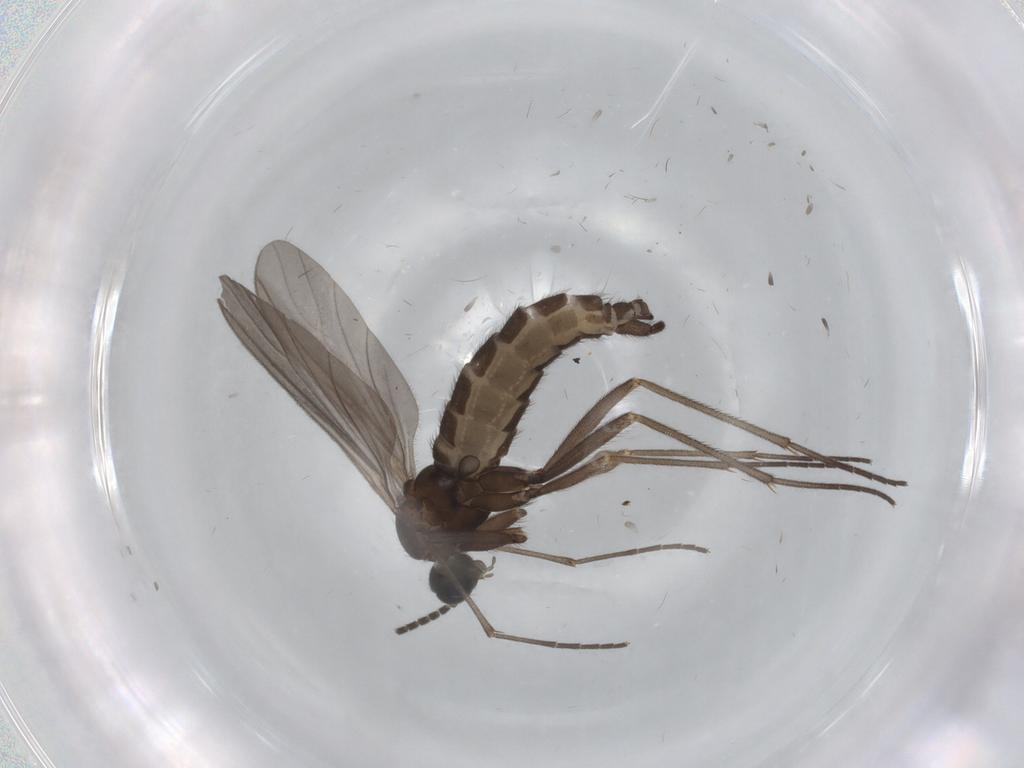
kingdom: Animalia
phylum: Arthropoda
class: Insecta
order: Diptera
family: Sciaridae
